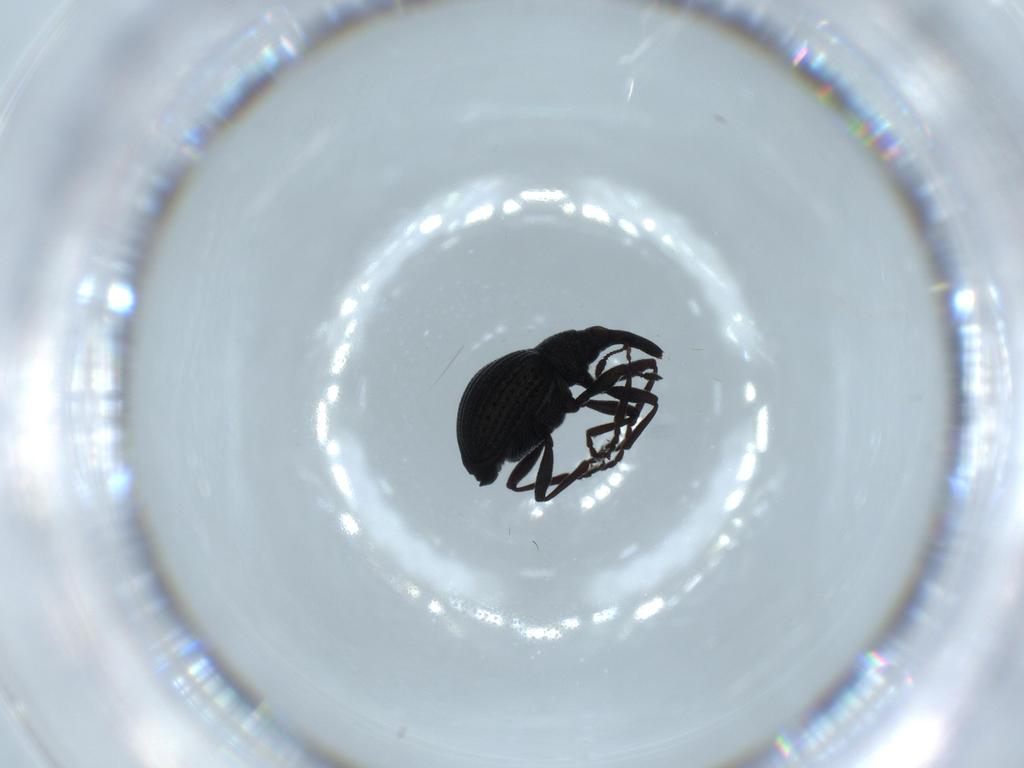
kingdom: Animalia
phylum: Arthropoda
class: Insecta
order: Coleoptera
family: Brentidae
